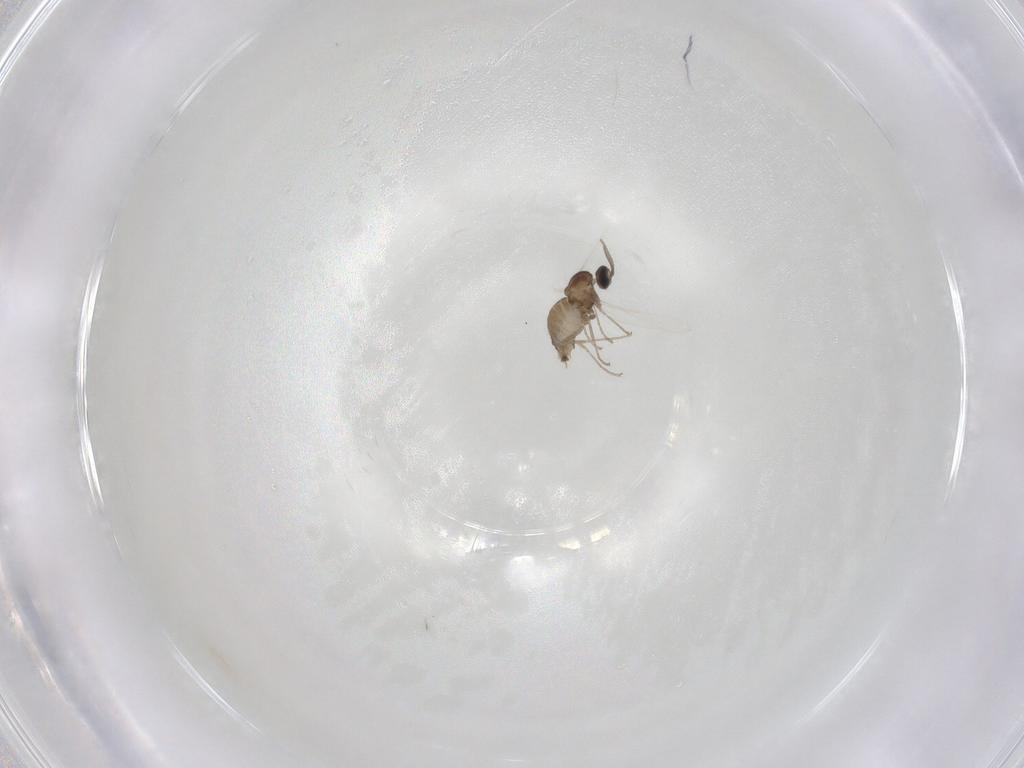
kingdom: Animalia
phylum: Arthropoda
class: Insecta
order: Diptera
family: Cecidomyiidae
